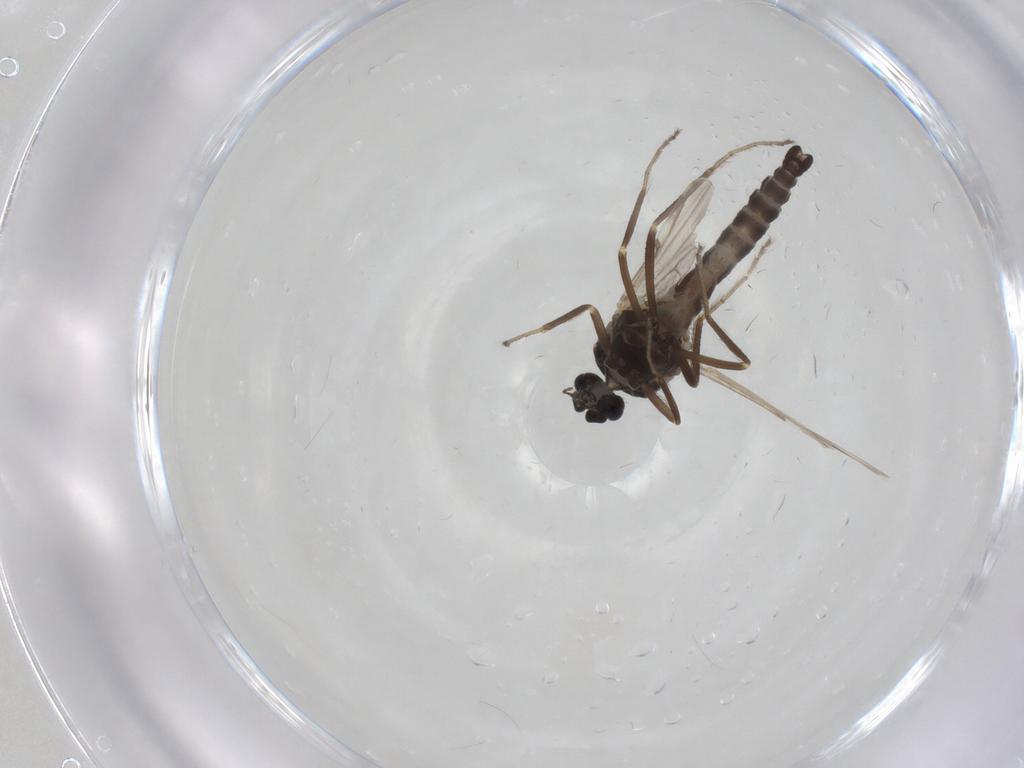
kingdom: Animalia
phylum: Arthropoda
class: Insecta
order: Diptera
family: Ceratopogonidae
